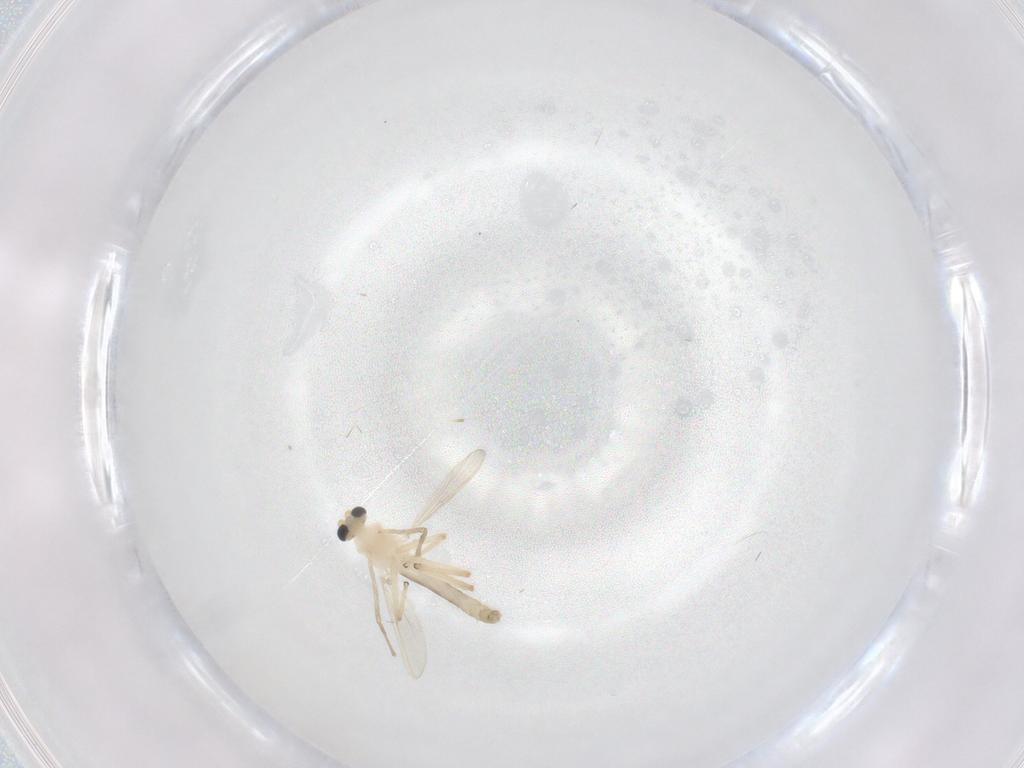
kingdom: Animalia
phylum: Arthropoda
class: Insecta
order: Diptera
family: Chironomidae
